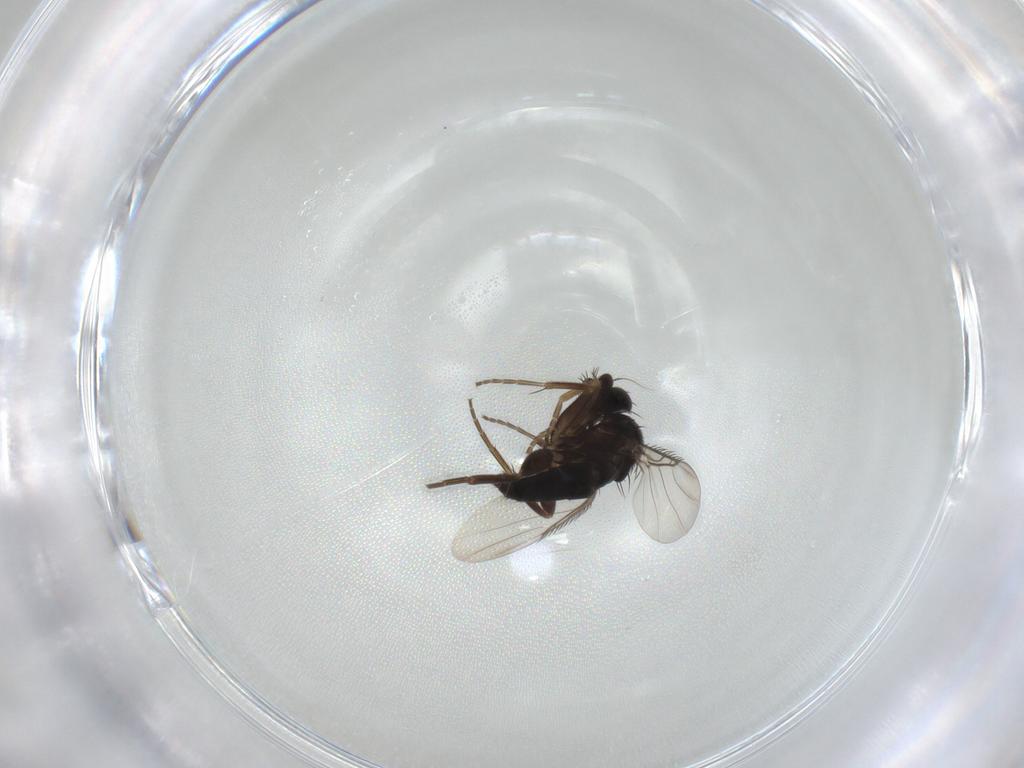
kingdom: Animalia
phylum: Arthropoda
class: Insecta
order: Diptera
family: Phoridae
